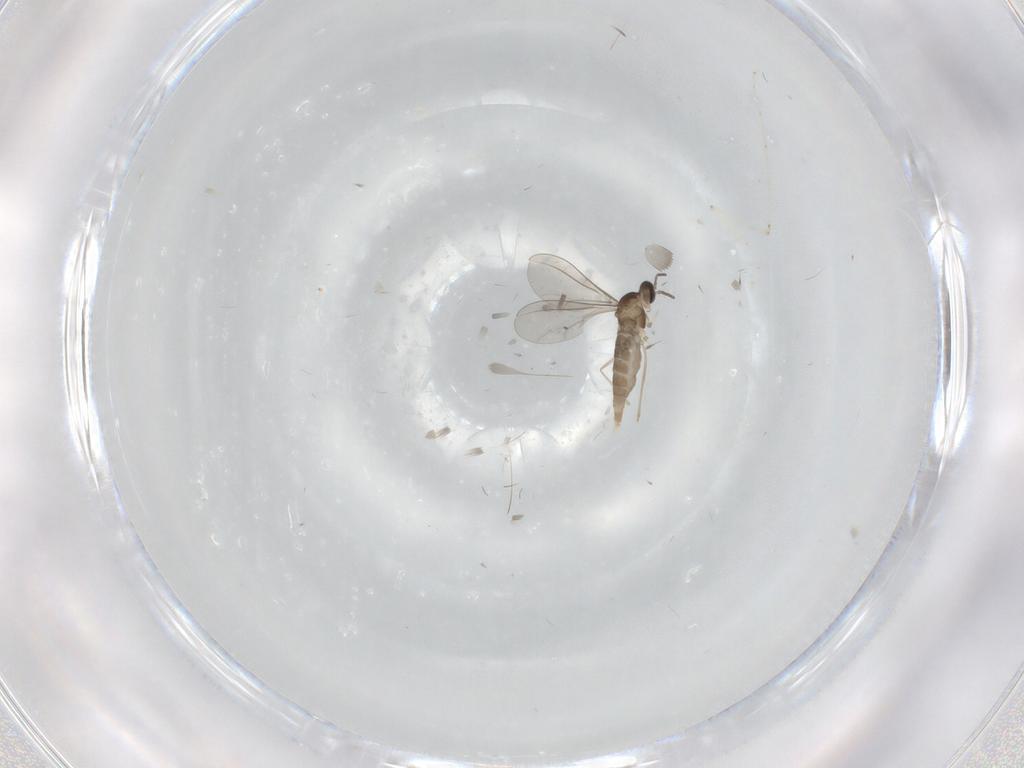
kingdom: Animalia
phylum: Arthropoda
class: Insecta
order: Diptera
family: Cecidomyiidae
